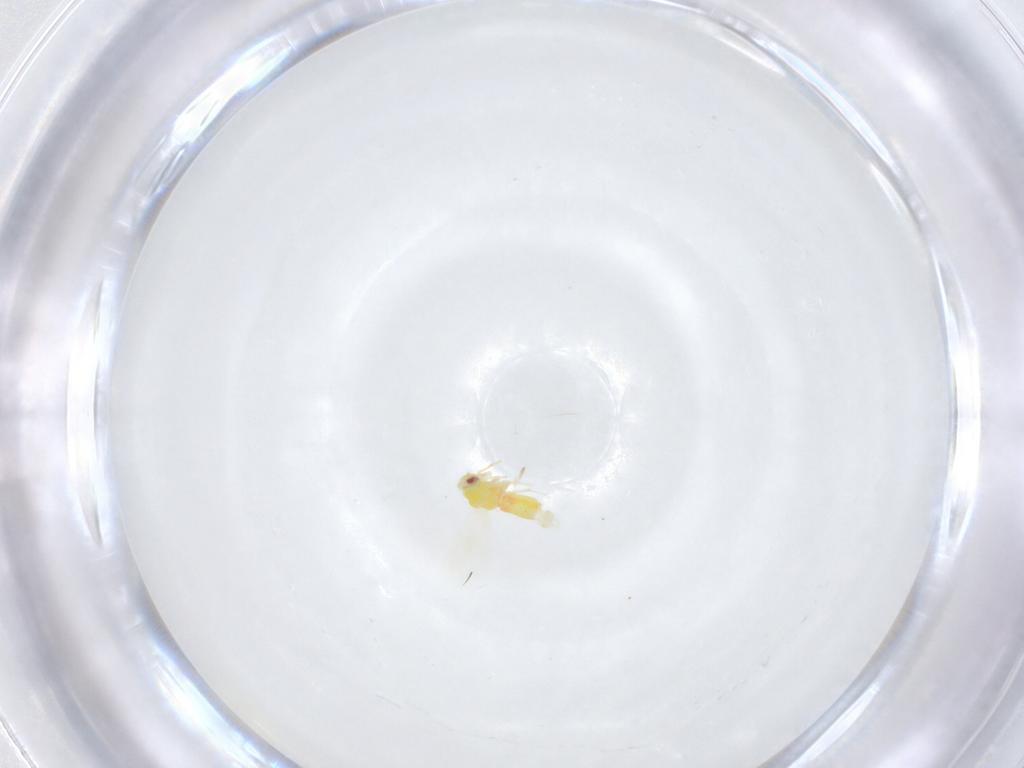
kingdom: Animalia
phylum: Arthropoda
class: Insecta
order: Hemiptera
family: Aleyrodidae
